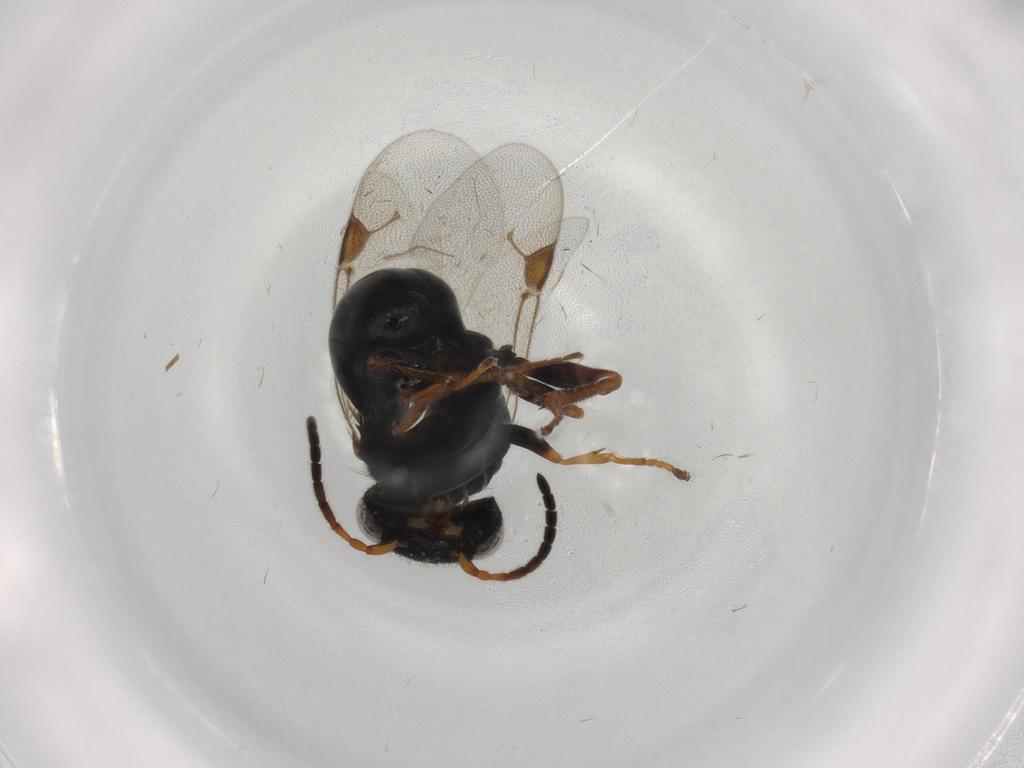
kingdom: Animalia
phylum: Arthropoda
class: Insecta
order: Hymenoptera
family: Dryinidae
